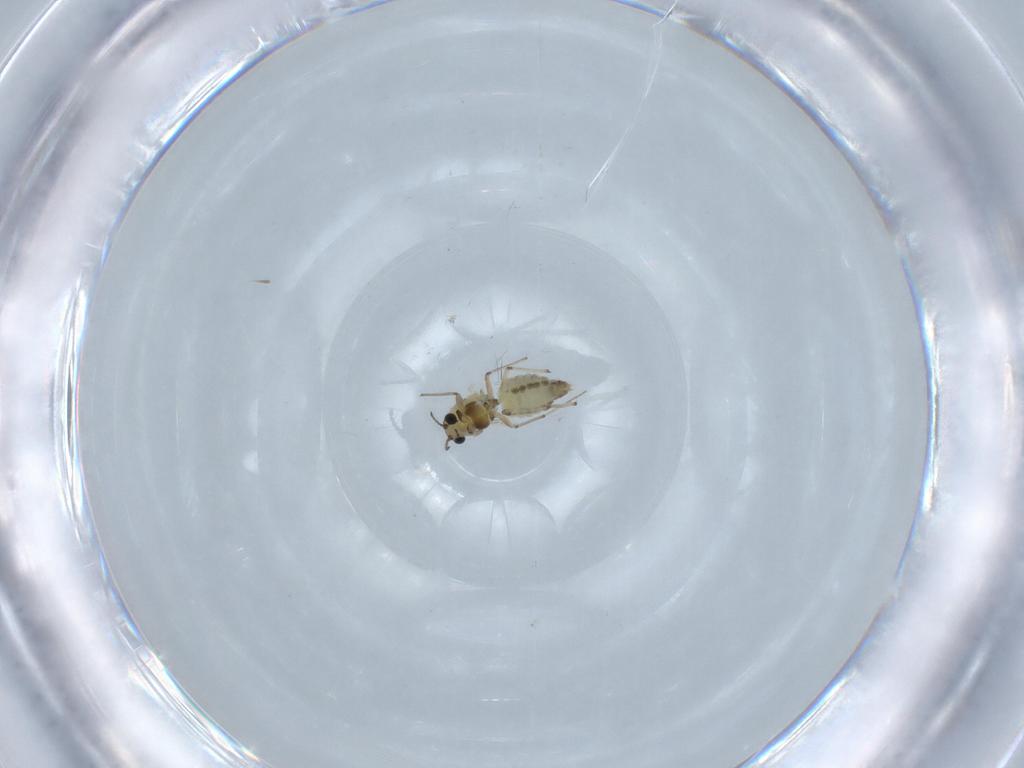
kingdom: Animalia
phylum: Arthropoda
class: Insecta
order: Diptera
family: Chironomidae
